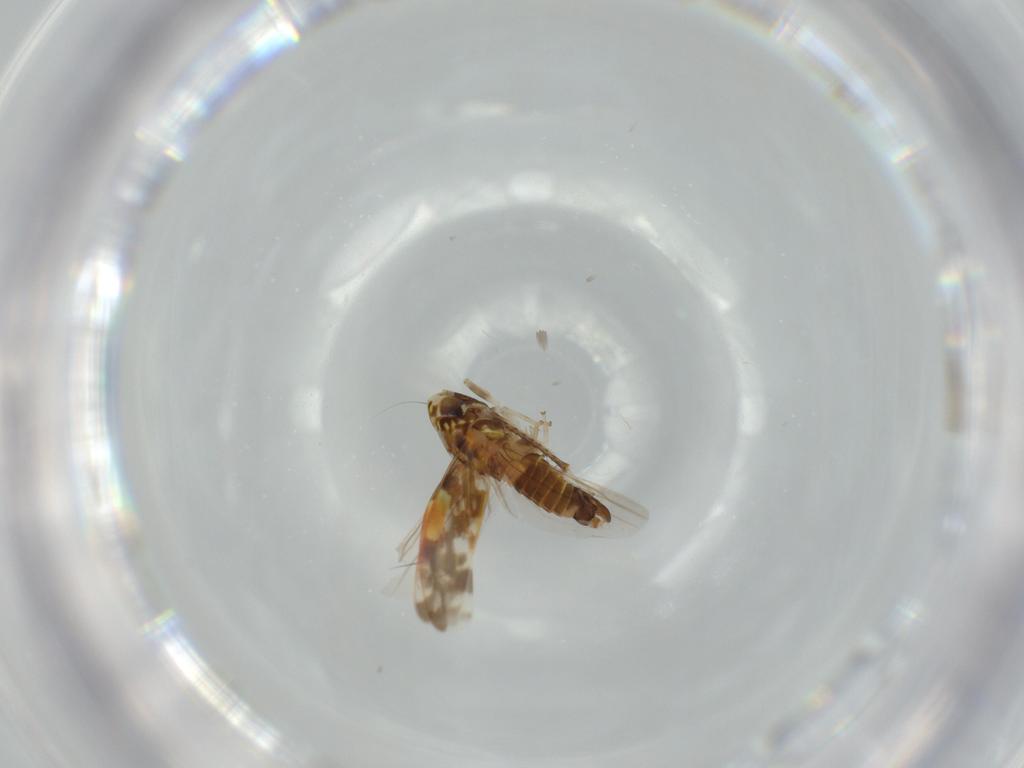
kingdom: Animalia
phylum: Arthropoda
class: Insecta
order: Hemiptera
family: Cicadellidae
